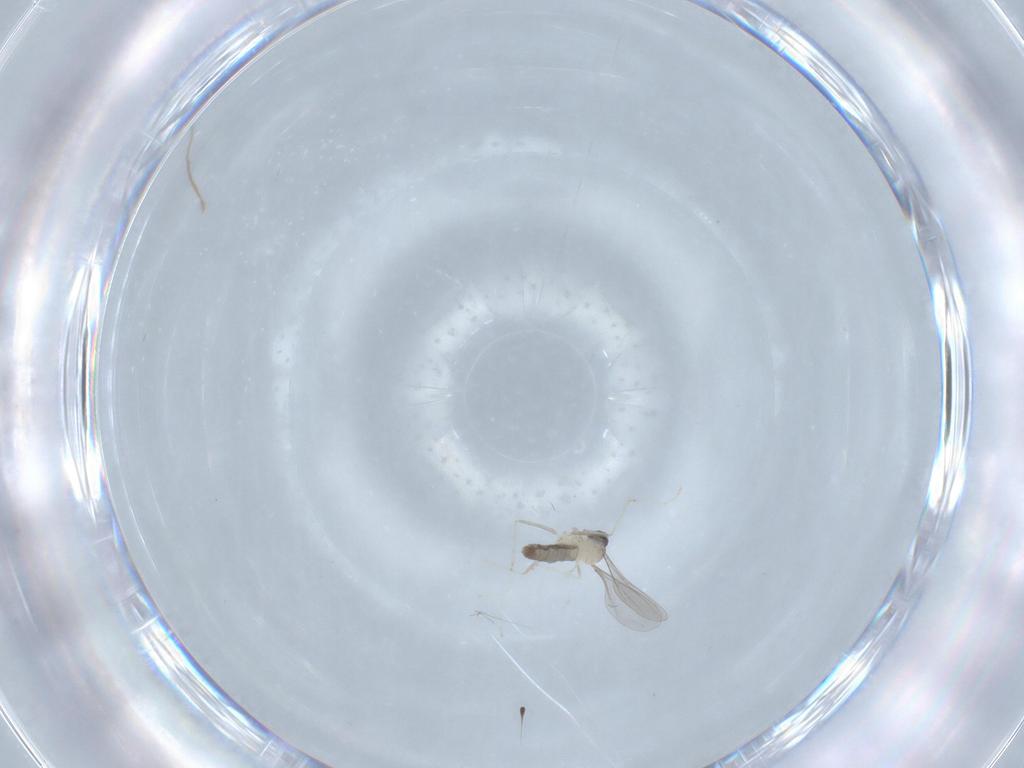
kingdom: Animalia
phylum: Arthropoda
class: Insecta
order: Diptera
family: Cecidomyiidae
